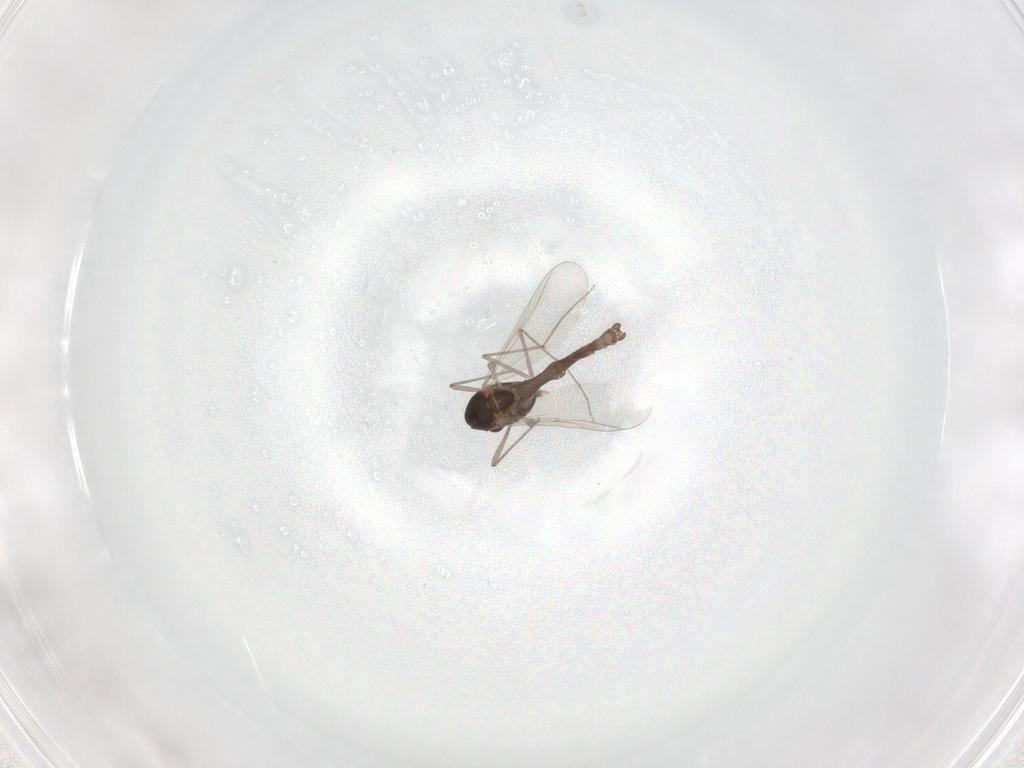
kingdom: Animalia
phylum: Arthropoda
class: Insecta
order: Diptera
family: Chironomidae
